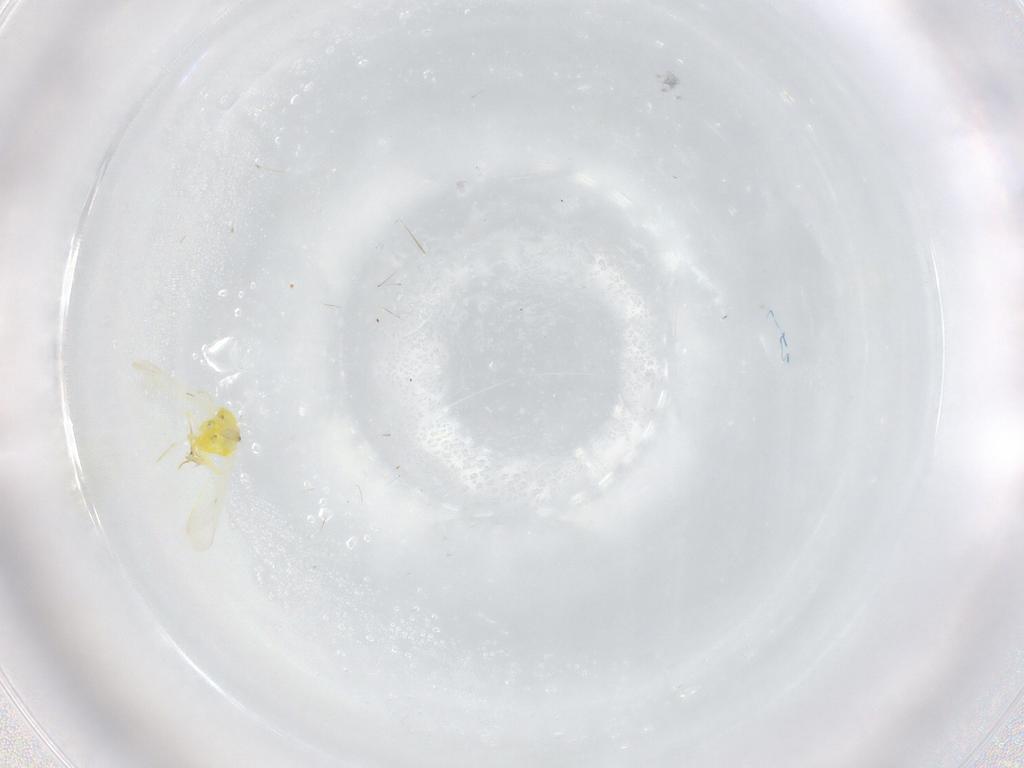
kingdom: Animalia
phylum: Arthropoda
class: Insecta
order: Hemiptera
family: Aleyrodidae
